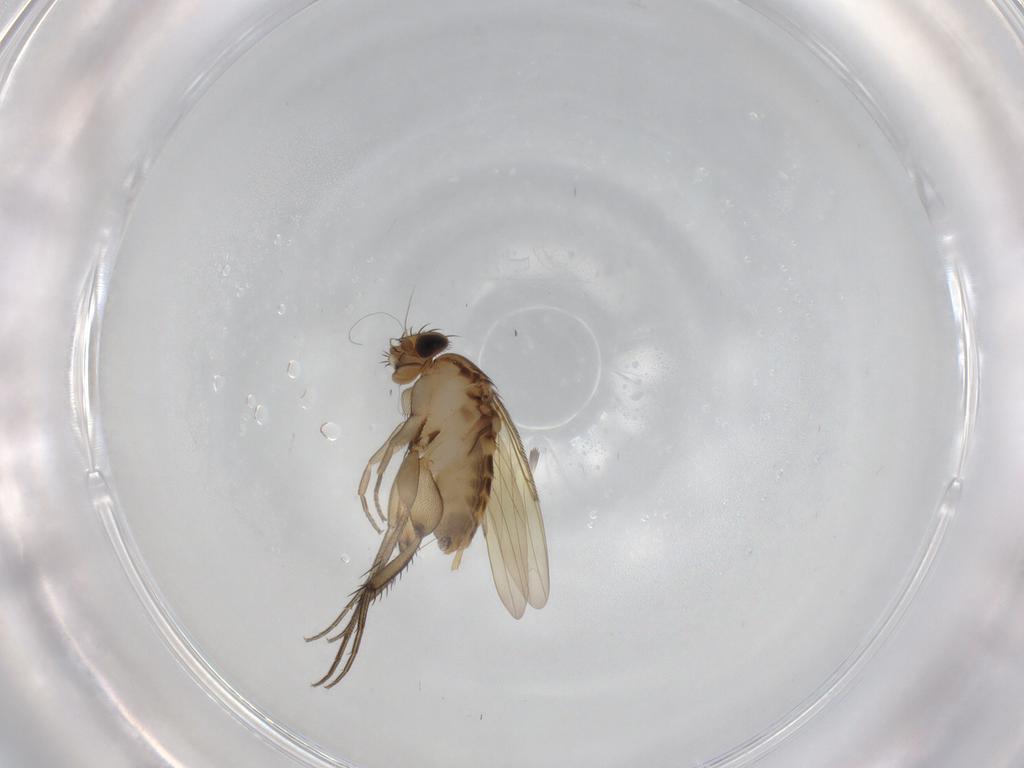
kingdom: Animalia
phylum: Arthropoda
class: Insecta
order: Diptera
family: Phoridae
